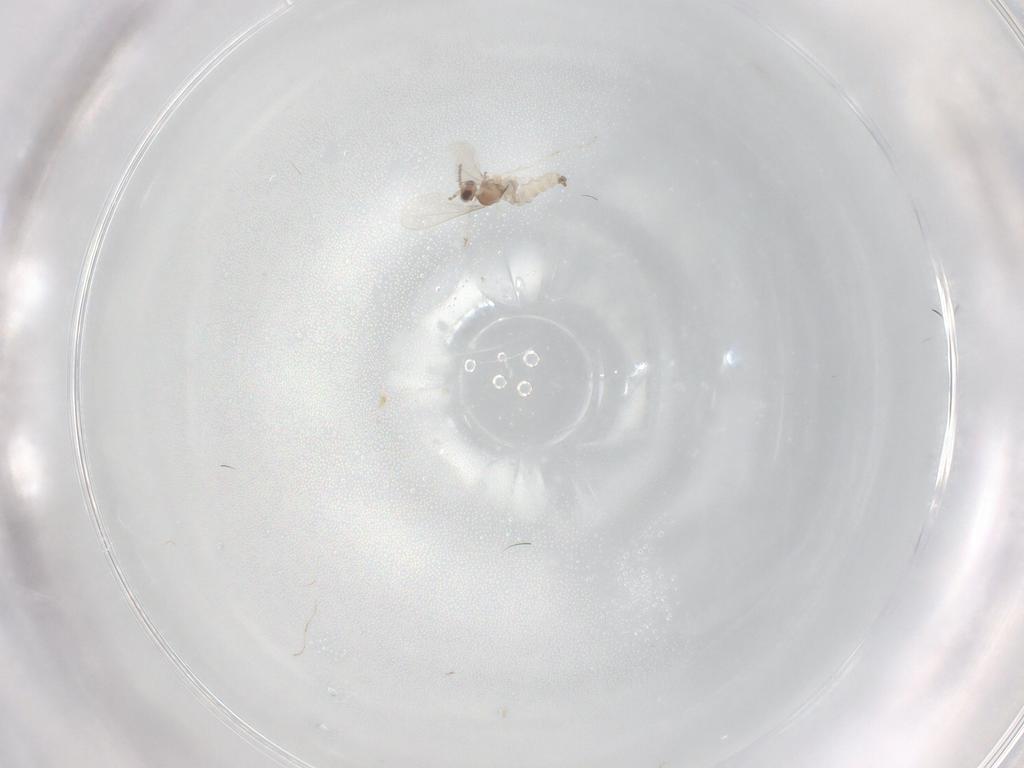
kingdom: Animalia
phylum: Arthropoda
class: Insecta
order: Diptera
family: Cecidomyiidae
